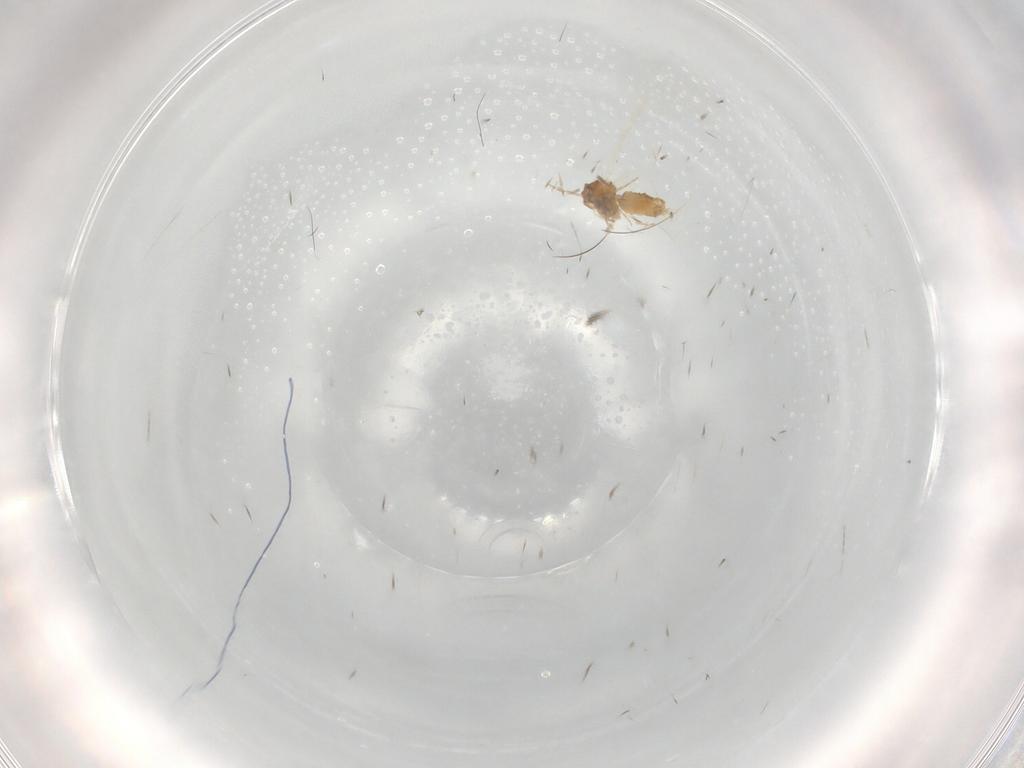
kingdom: Animalia
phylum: Arthropoda
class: Insecta
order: Hemiptera
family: Aleyrodidae
